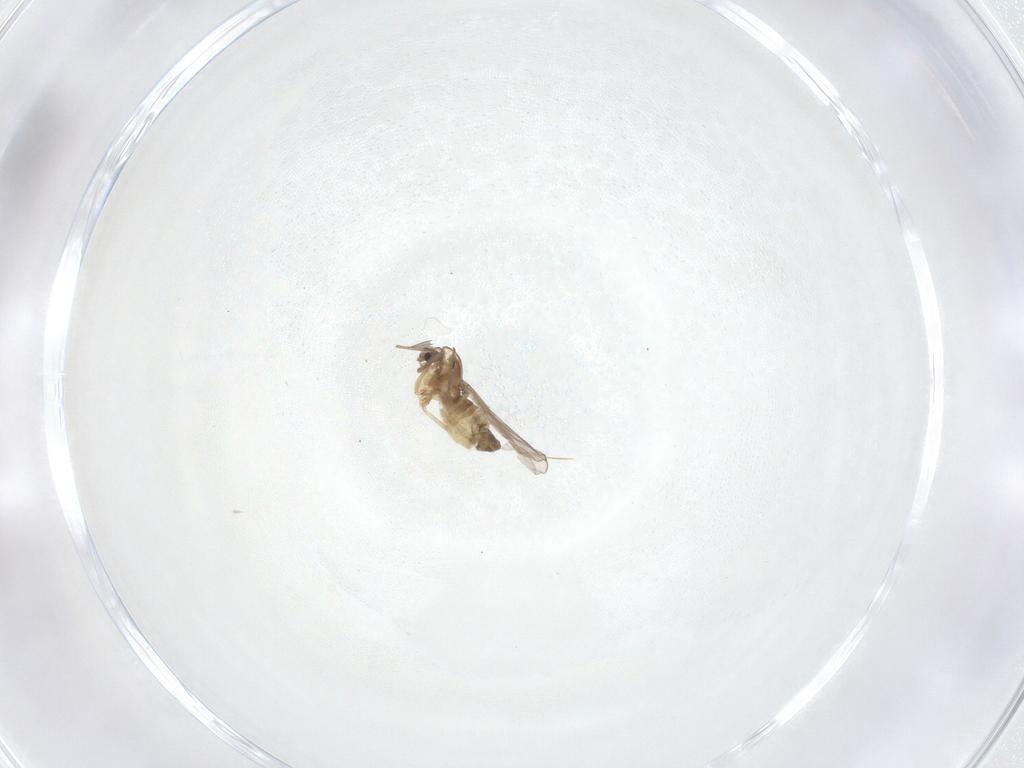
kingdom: Animalia
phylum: Arthropoda
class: Insecta
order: Diptera
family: Chironomidae
